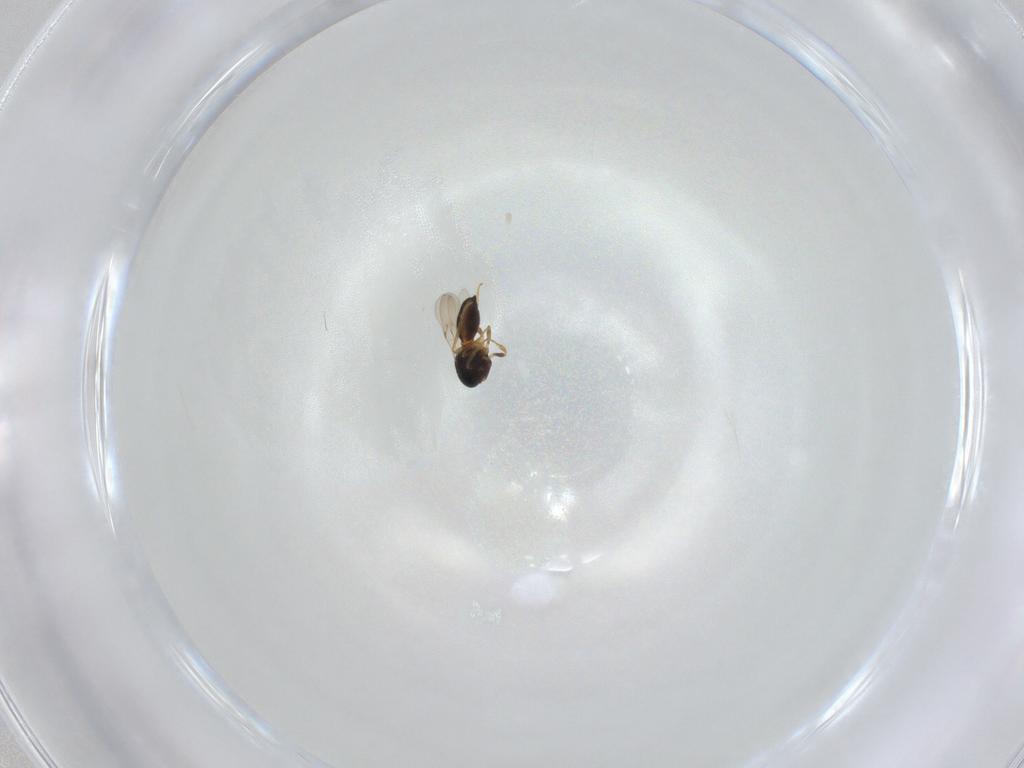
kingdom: Animalia
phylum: Arthropoda
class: Insecta
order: Hymenoptera
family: Scelionidae
